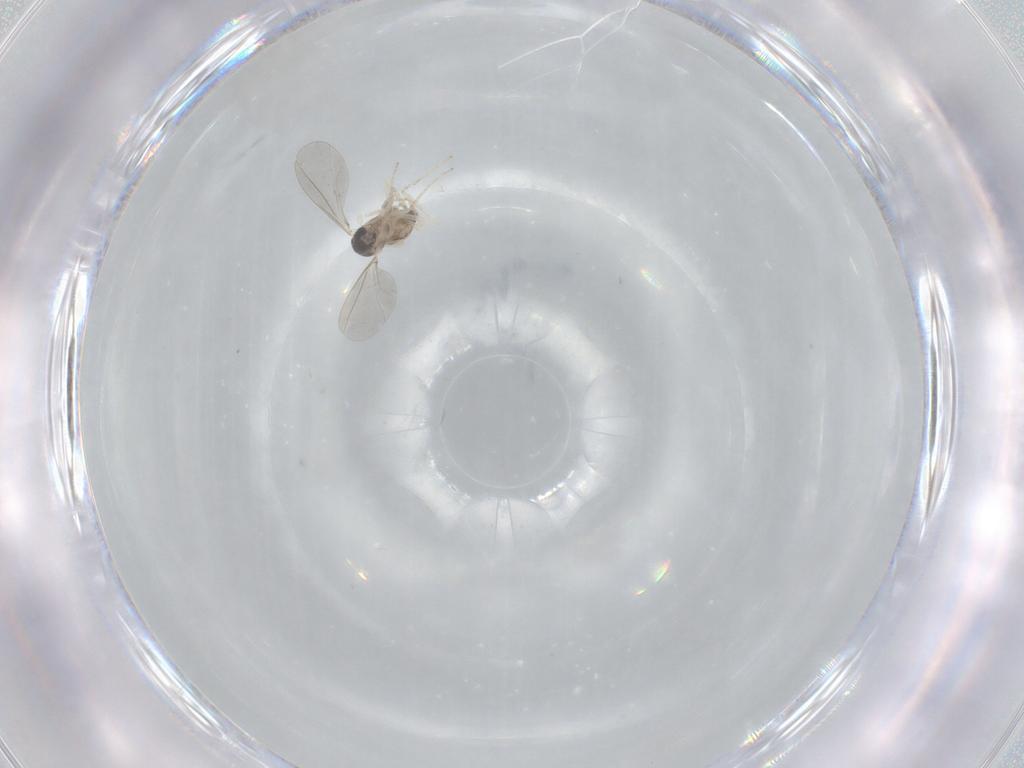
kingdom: Animalia
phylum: Arthropoda
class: Insecta
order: Diptera
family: Cecidomyiidae
